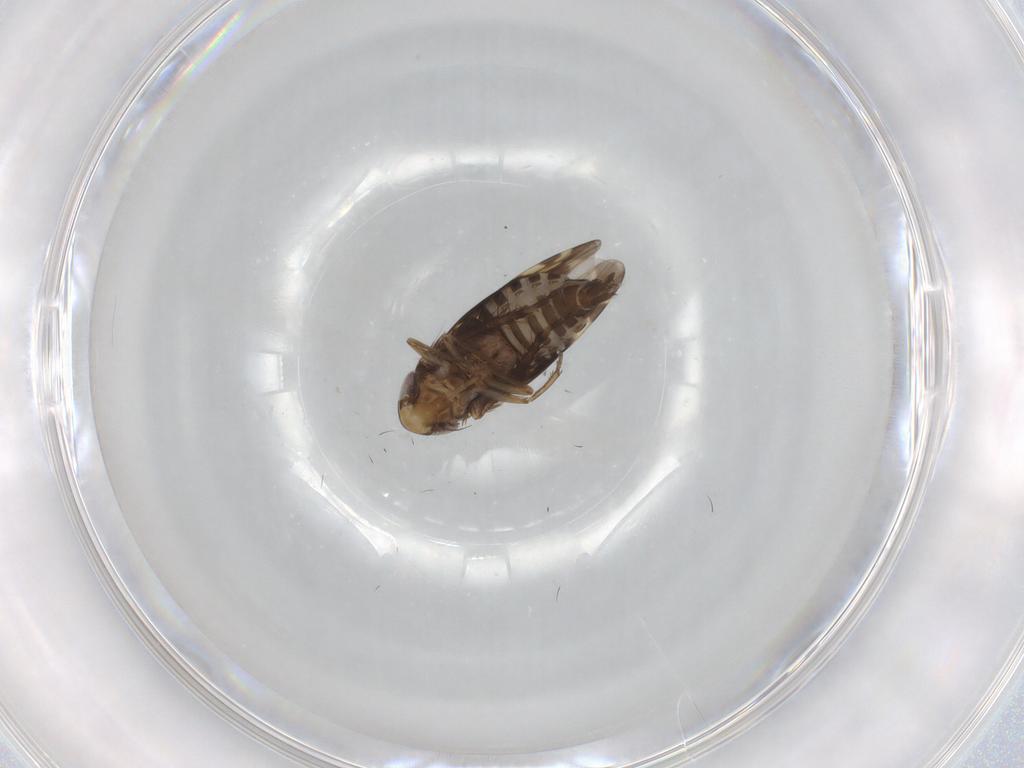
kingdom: Animalia
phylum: Arthropoda
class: Insecta
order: Hemiptera
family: Cicadellidae
